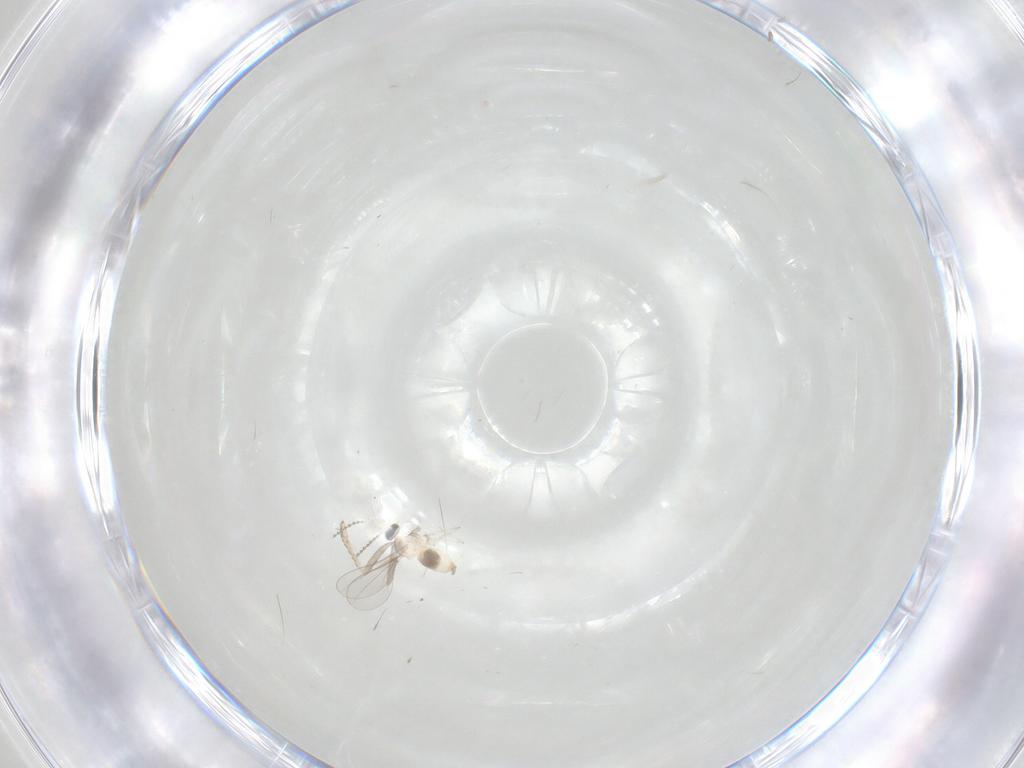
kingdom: Animalia
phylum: Arthropoda
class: Insecta
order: Diptera
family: Cecidomyiidae
